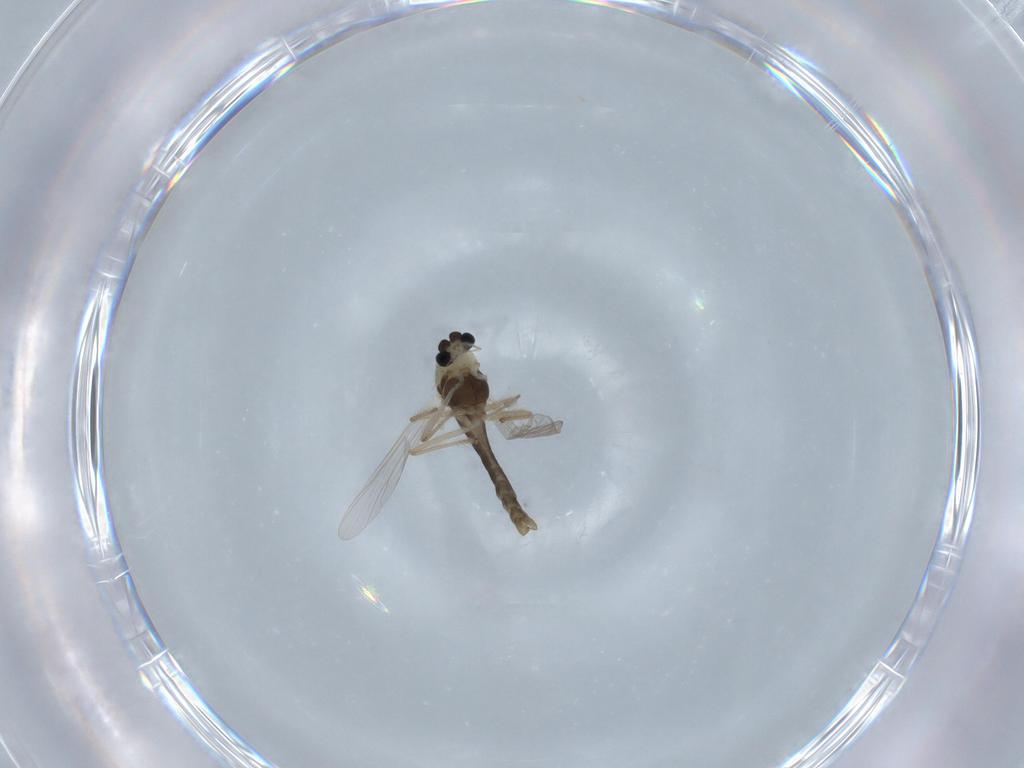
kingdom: Animalia
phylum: Arthropoda
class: Insecta
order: Diptera
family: Chironomidae
